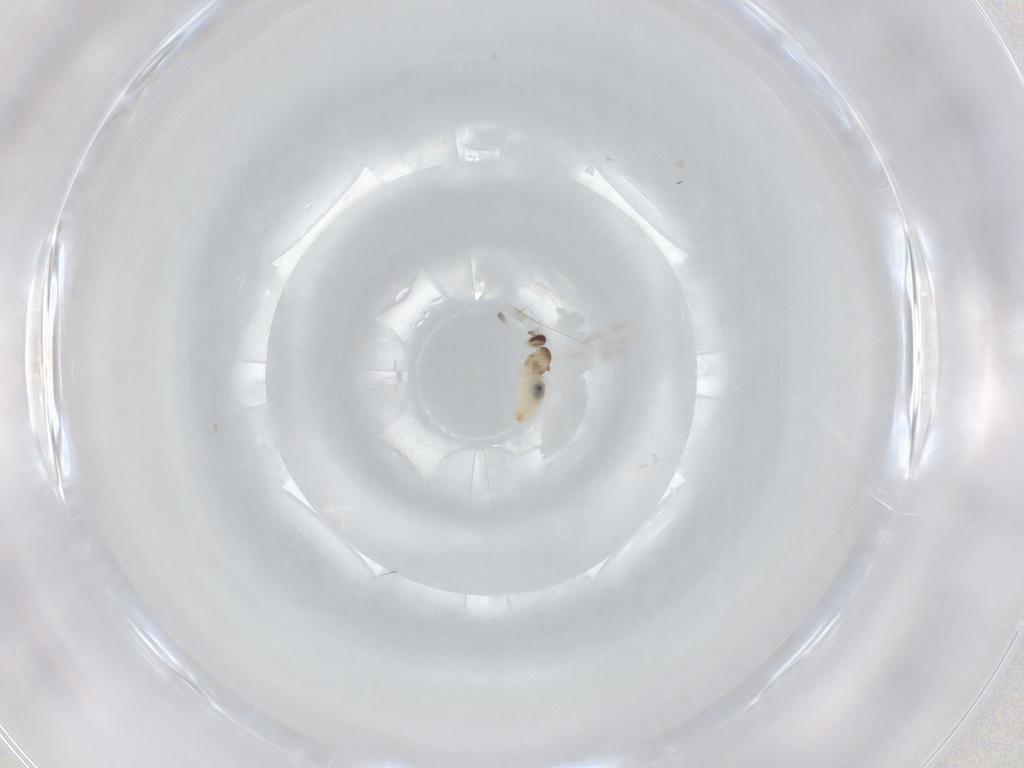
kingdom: Animalia
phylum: Arthropoda
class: Insecta
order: Diptera
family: Cecidomyiidae
